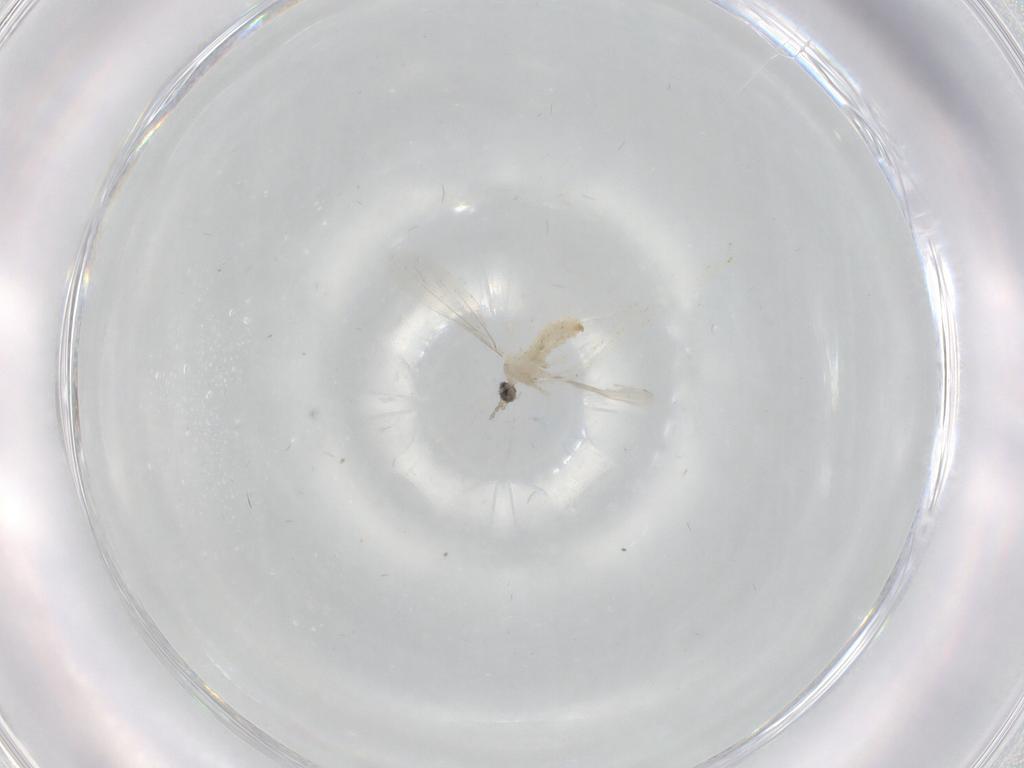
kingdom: Animalia
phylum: Arthropoda
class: Insecta
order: Diptera
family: Cecidomyiidae
